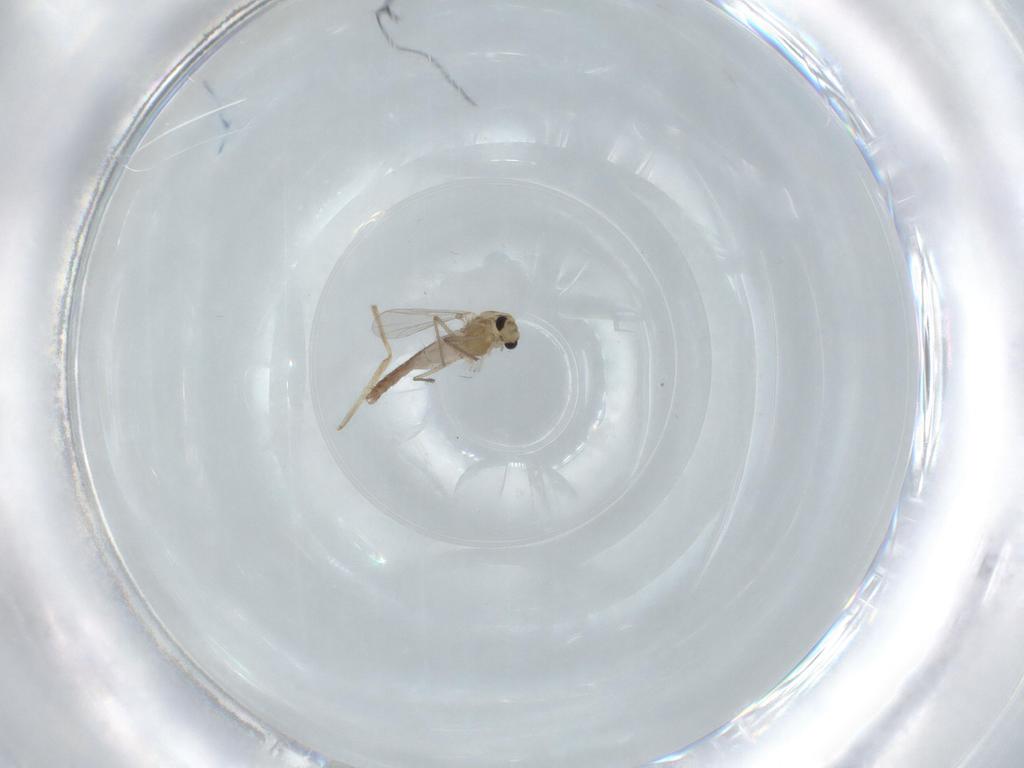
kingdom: Animalia
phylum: Arthropoda
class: Insecta
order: Diptera
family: Chironomidae
